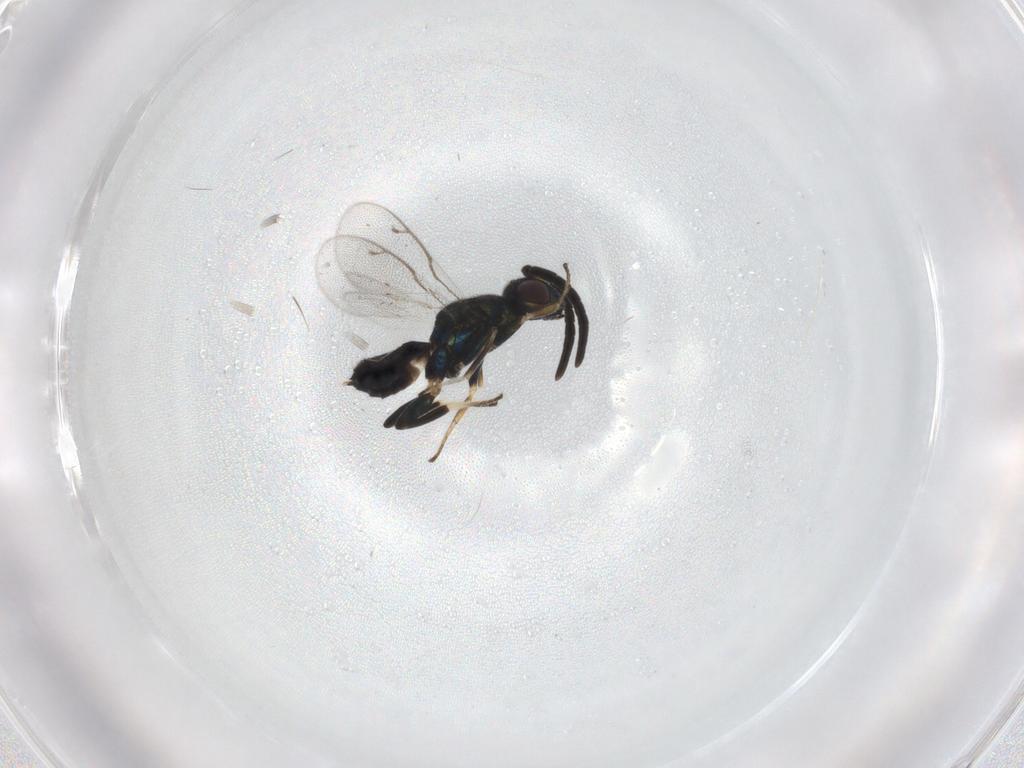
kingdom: Animalia
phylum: Arthropoda
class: Insecta
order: Hymenoptera
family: Eupelmidae
